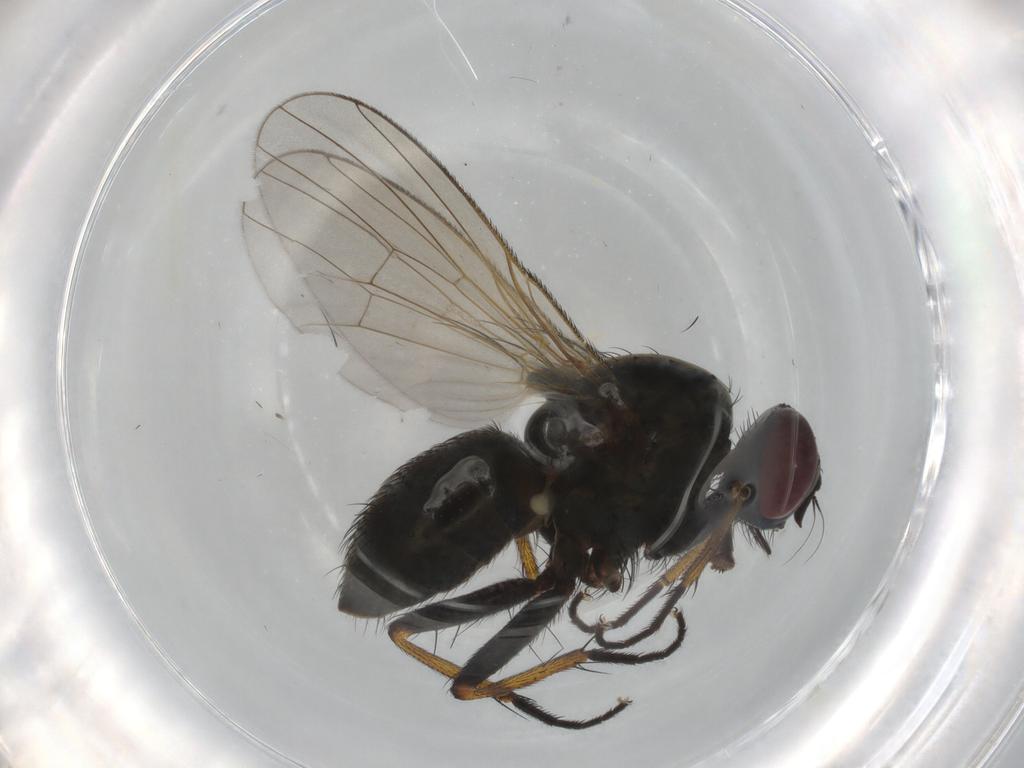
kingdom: Animalia
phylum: Arthropoda
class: Insecta
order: Diptera
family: Muscidae
